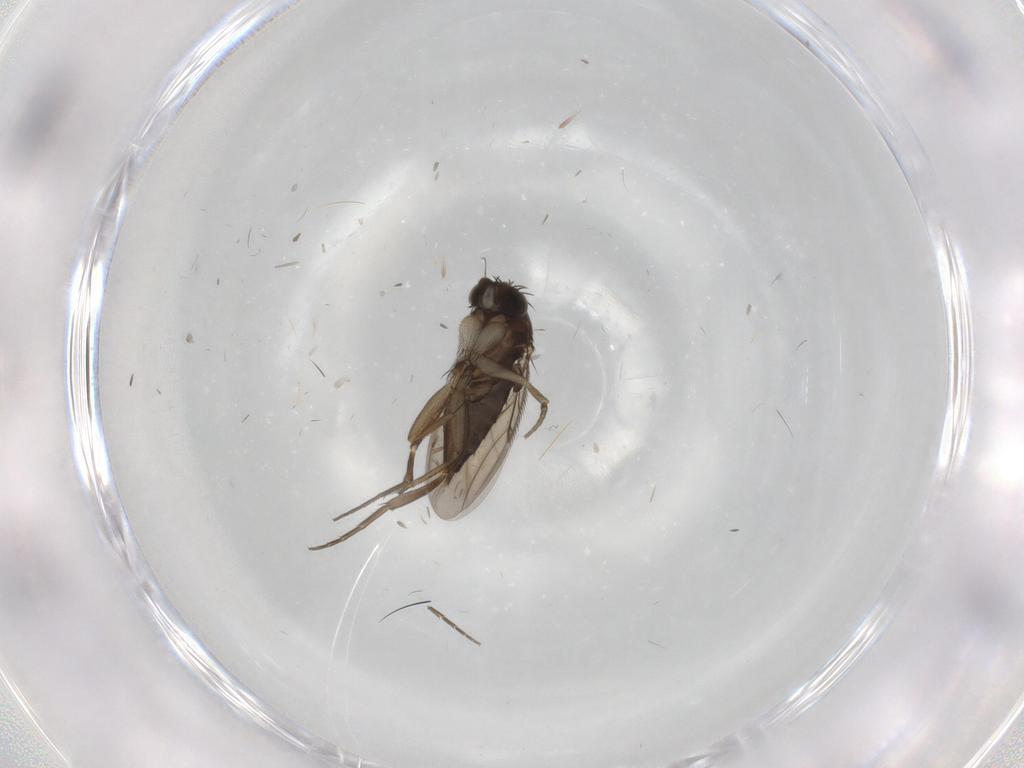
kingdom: Animalia
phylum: Arthropoda
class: Insecta
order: Diptera
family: Phoridae
